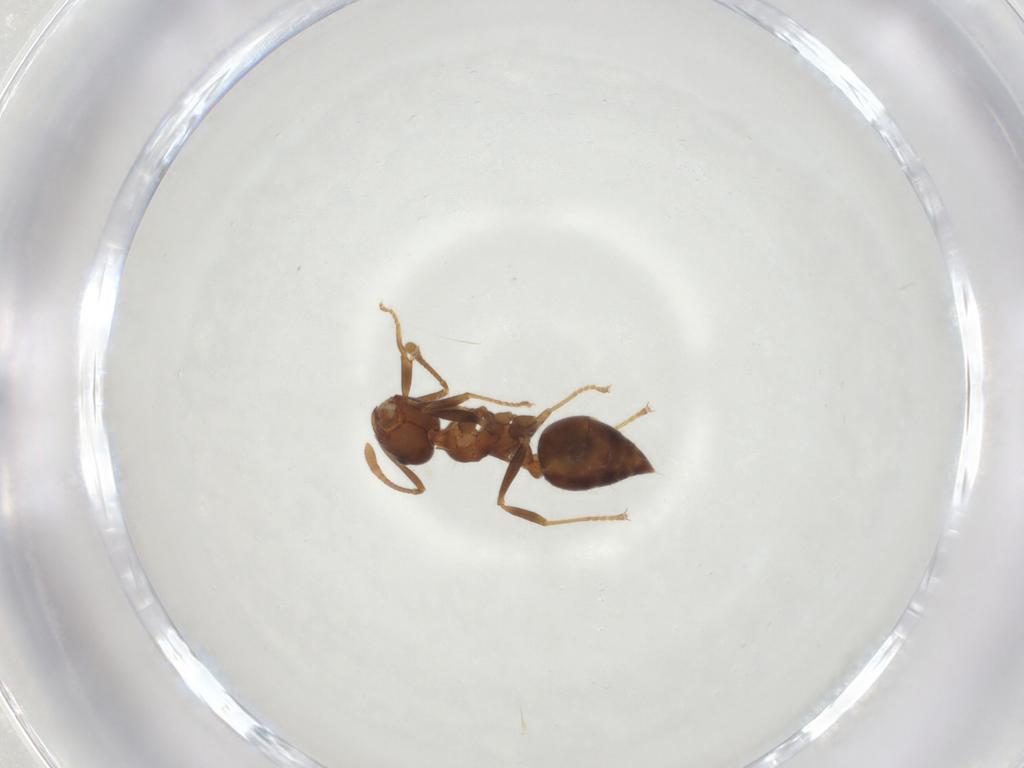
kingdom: Animalia
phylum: Arthropoda
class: Insecta
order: Hymenoptera
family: Formicidae
